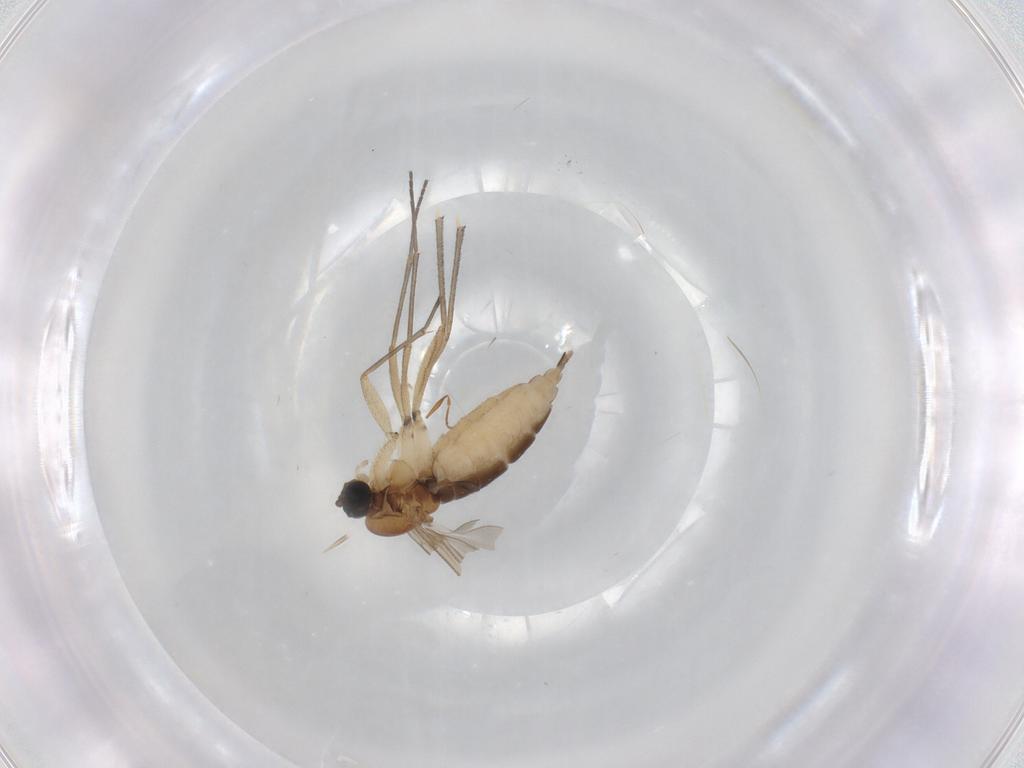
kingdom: Animalia
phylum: Arthropoda
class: Insecta
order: Diptera
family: Sciaridae
